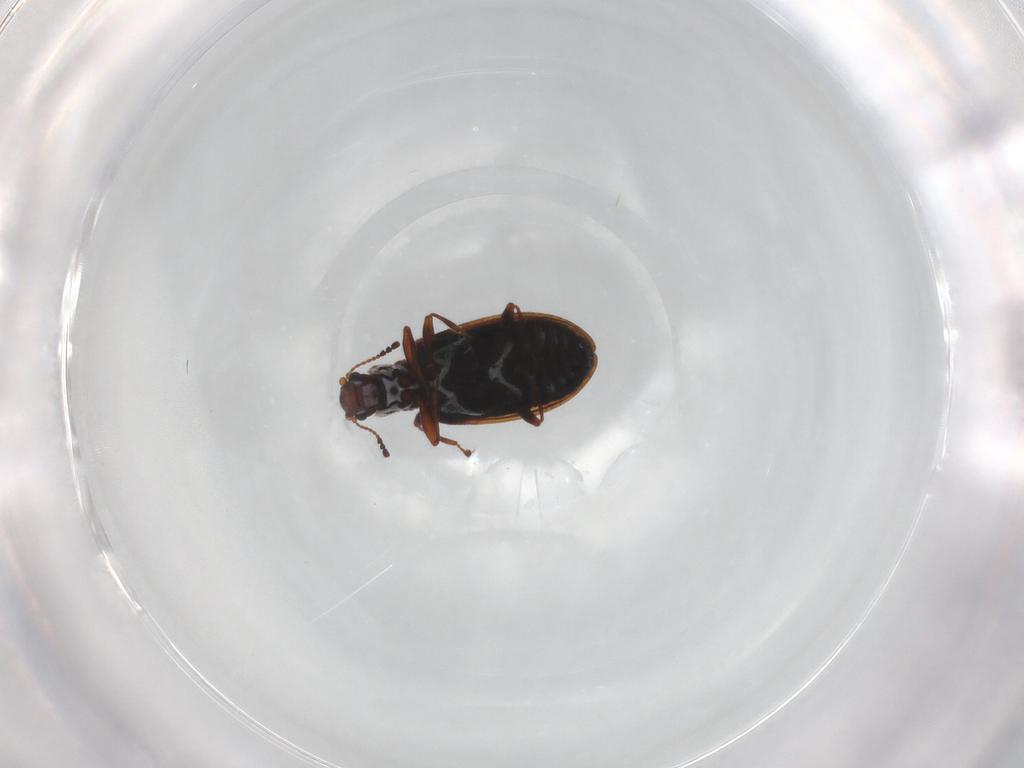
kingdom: Animalia
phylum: Arthropoda
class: Insecta
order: Coleoptera
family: Latridiidae
